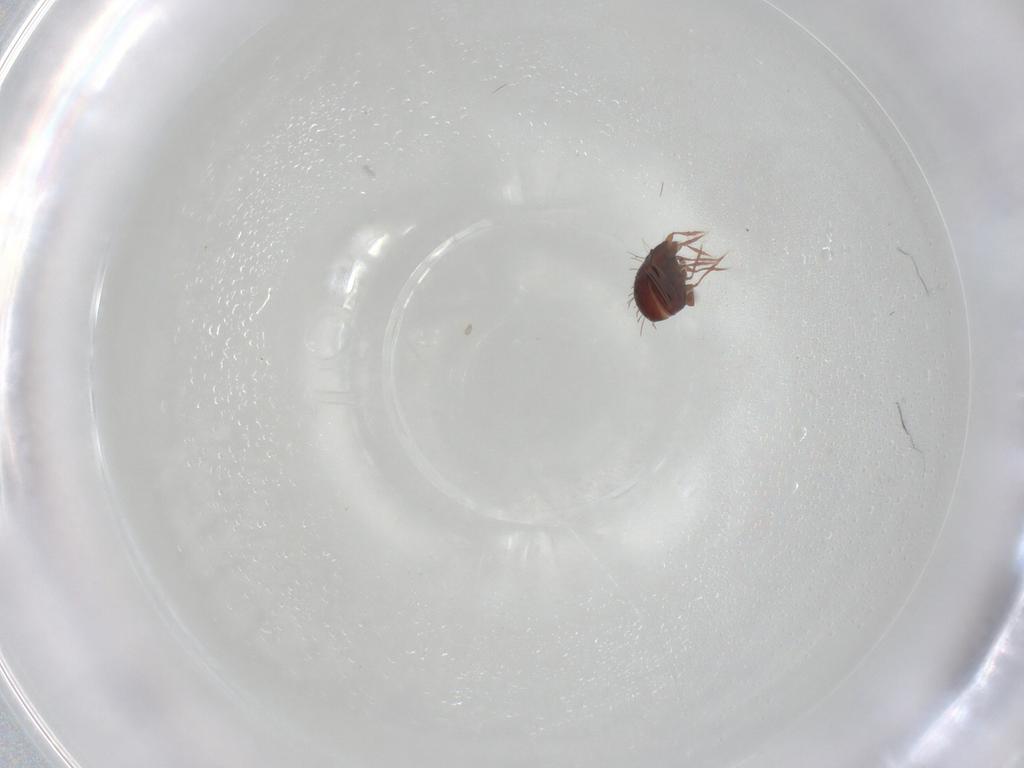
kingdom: Animalia
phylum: Arthropoda
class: Arachnida
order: Sarcoptiformes
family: Caloppiidae
